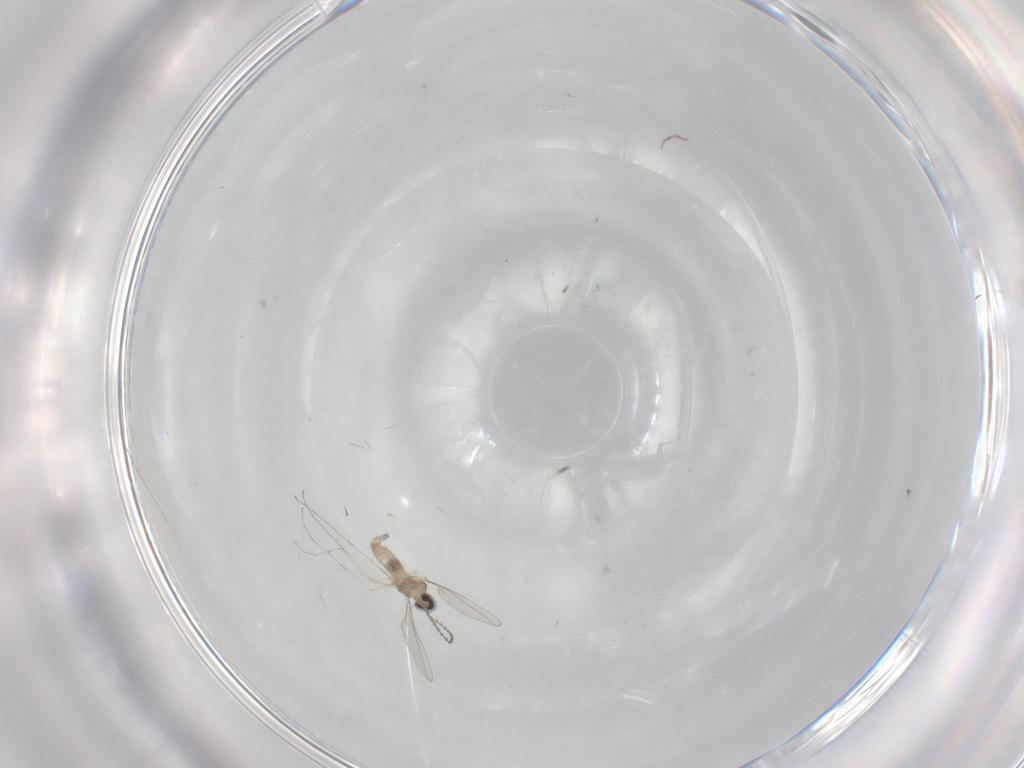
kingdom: Animalia
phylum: Arthropoda
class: Insecta
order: Diptera
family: Cecidomyiidae
